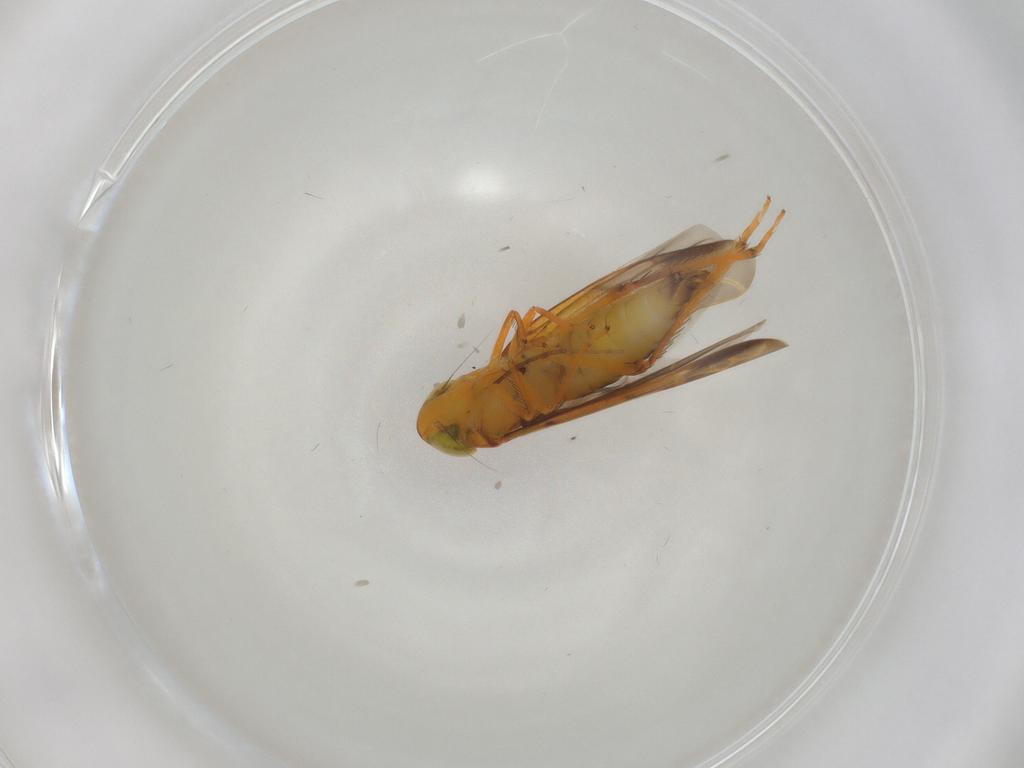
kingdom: Animalia
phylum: Arthropoda
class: Insecta
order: Hemiptera
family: Cicadellidae
